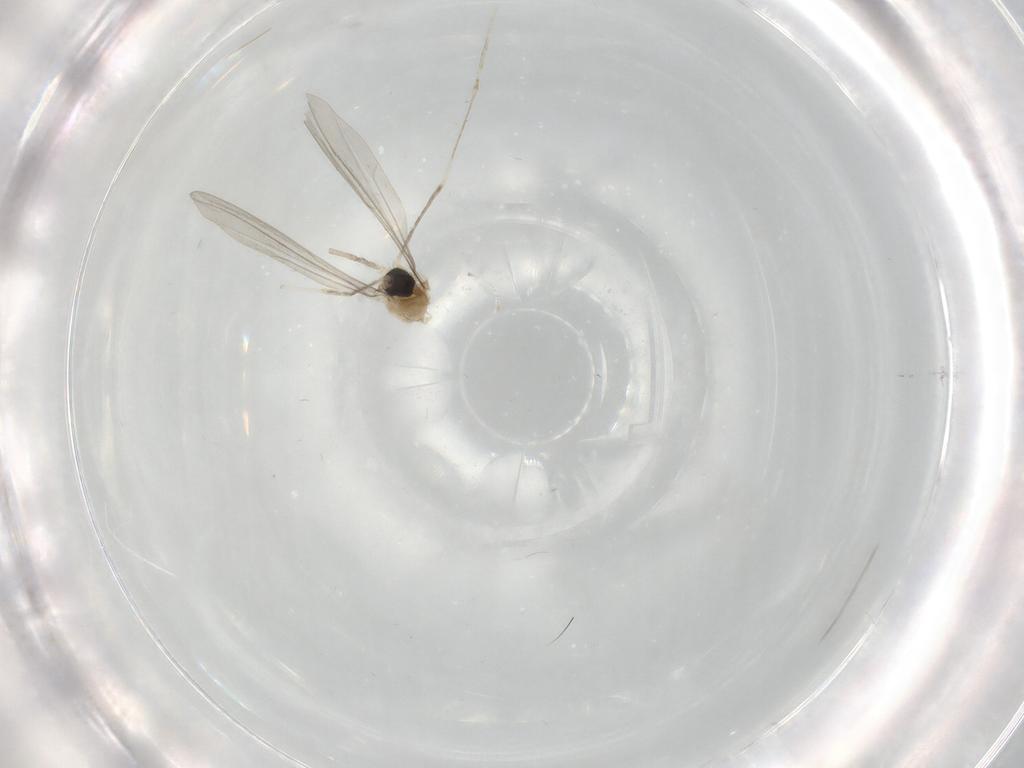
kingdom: Animalia
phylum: Arthropoda
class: Insecta
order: Diptera
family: Cecidomyiidae
